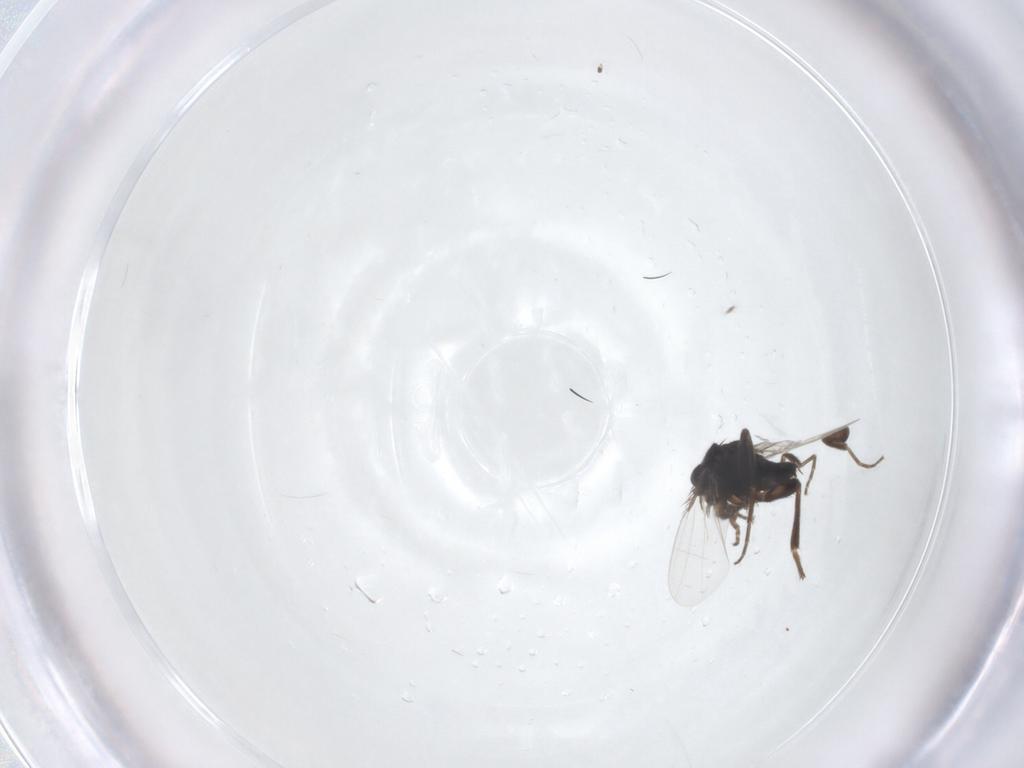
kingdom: Animalia
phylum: Arthropoda
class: Insecta
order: Diptera
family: Phoridae
